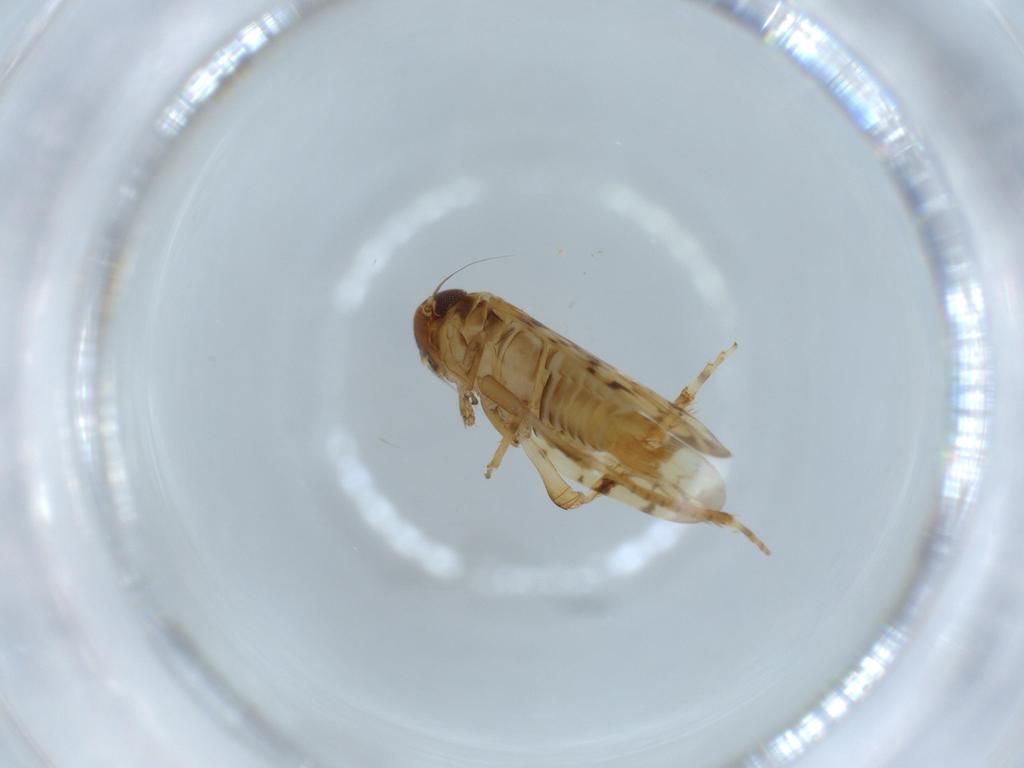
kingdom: Animalia
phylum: Arthropoda
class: Insecta
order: Hemiptera
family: Cicadellidae
